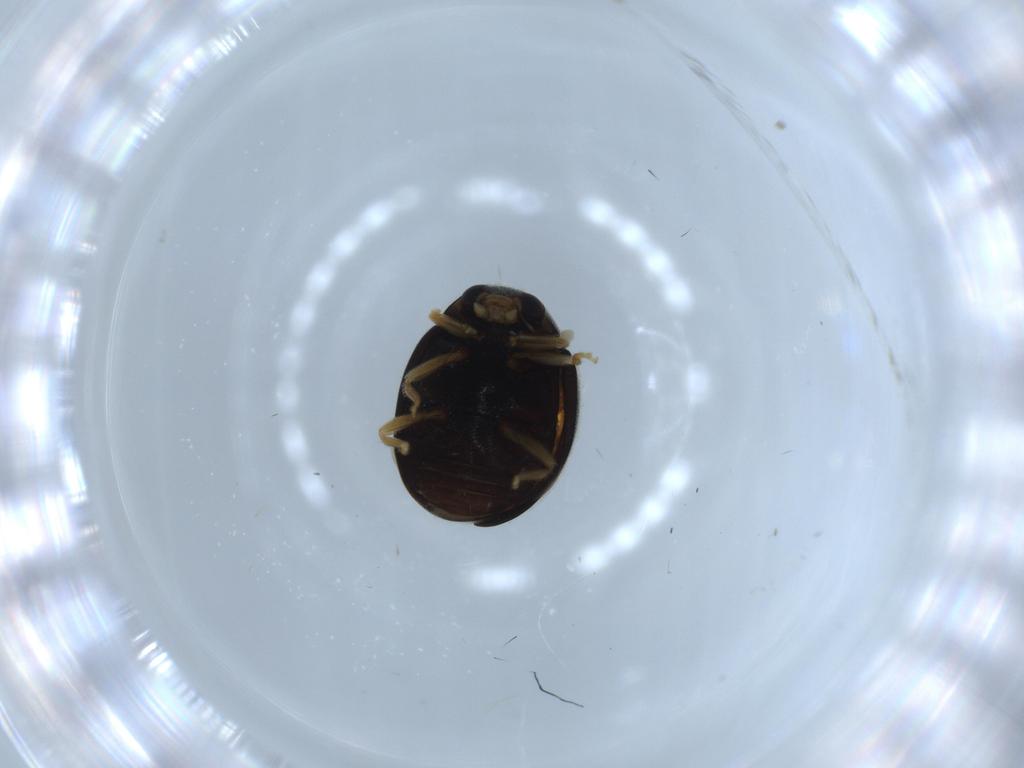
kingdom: Animalia
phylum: Arthropoda
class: Insecta
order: Coleoptera
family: Coccinellidae
